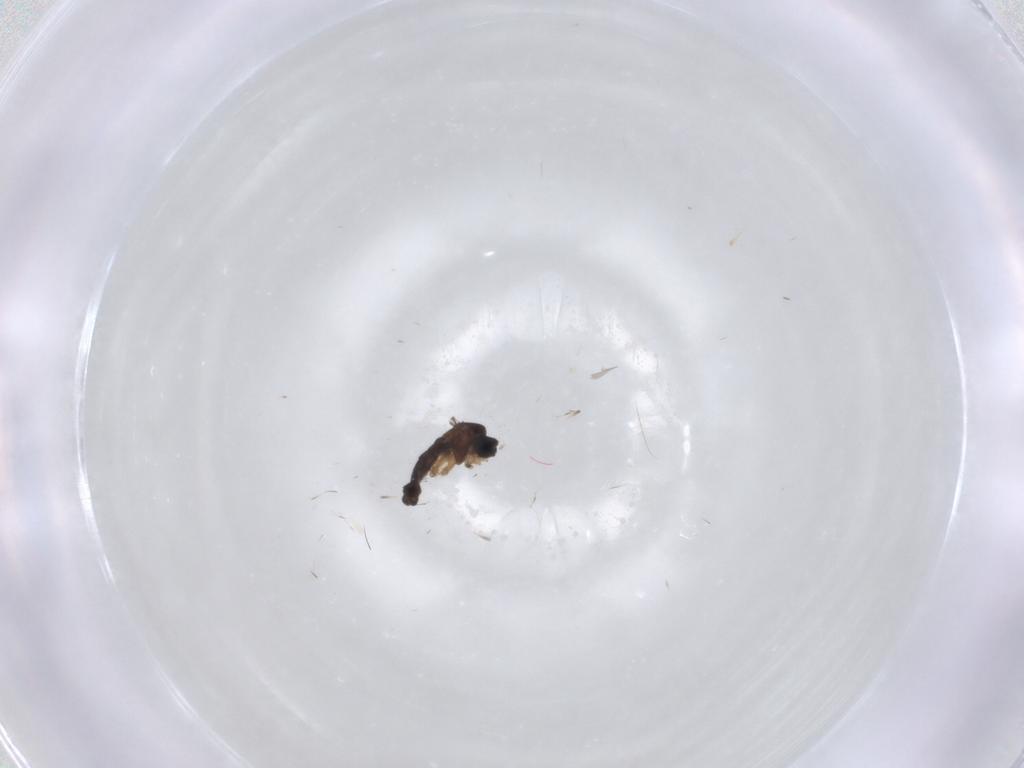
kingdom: Animalia
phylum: Arthropoda
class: Insecta
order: Diptera
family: Sciaridae
